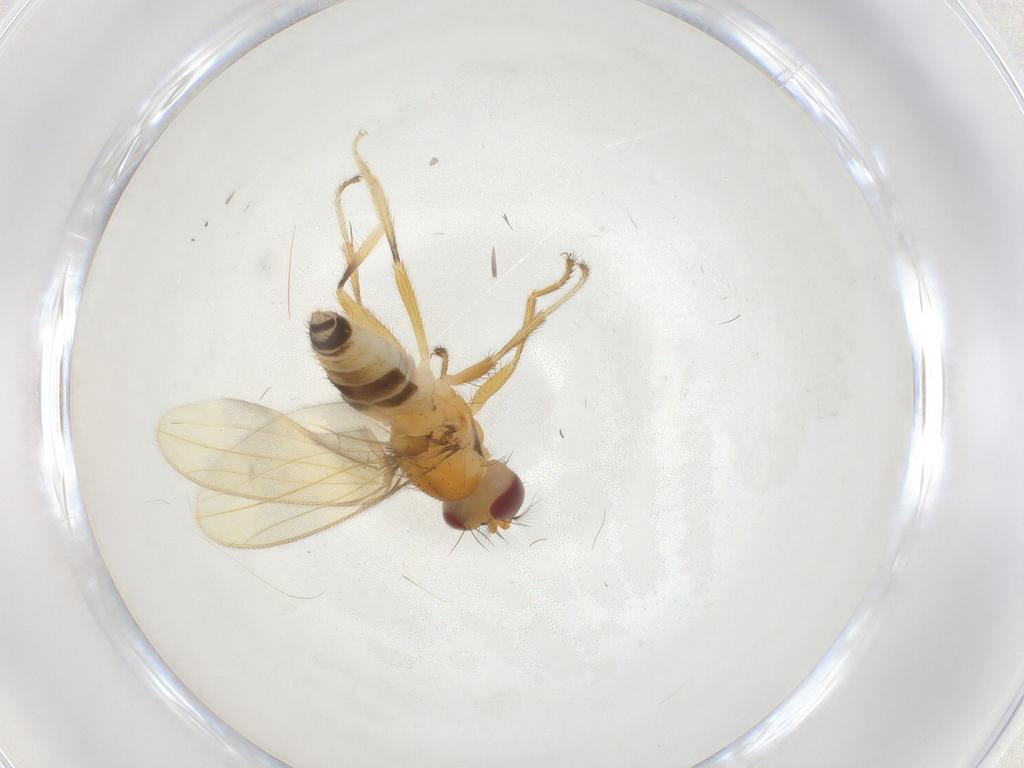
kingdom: Animalia
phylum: Arthropoda
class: Insecta
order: Diptera
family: Periscelididae
